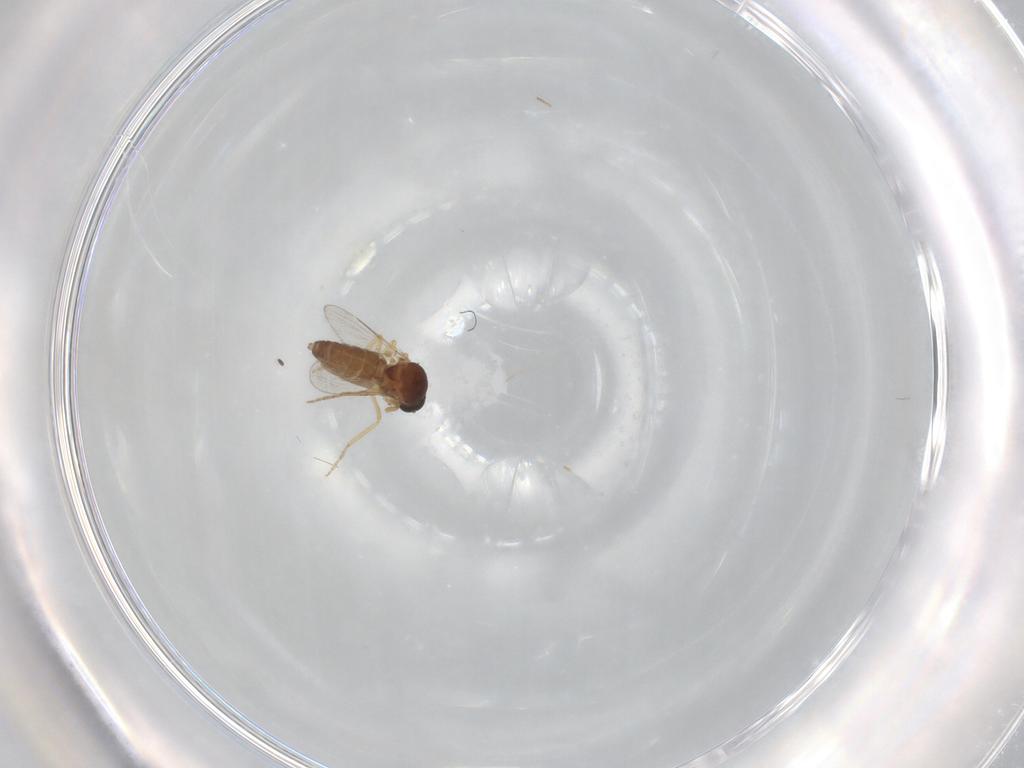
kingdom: Animalia
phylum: Arthropoda
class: Insecta
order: Diptera
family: Ceratopogonidae
